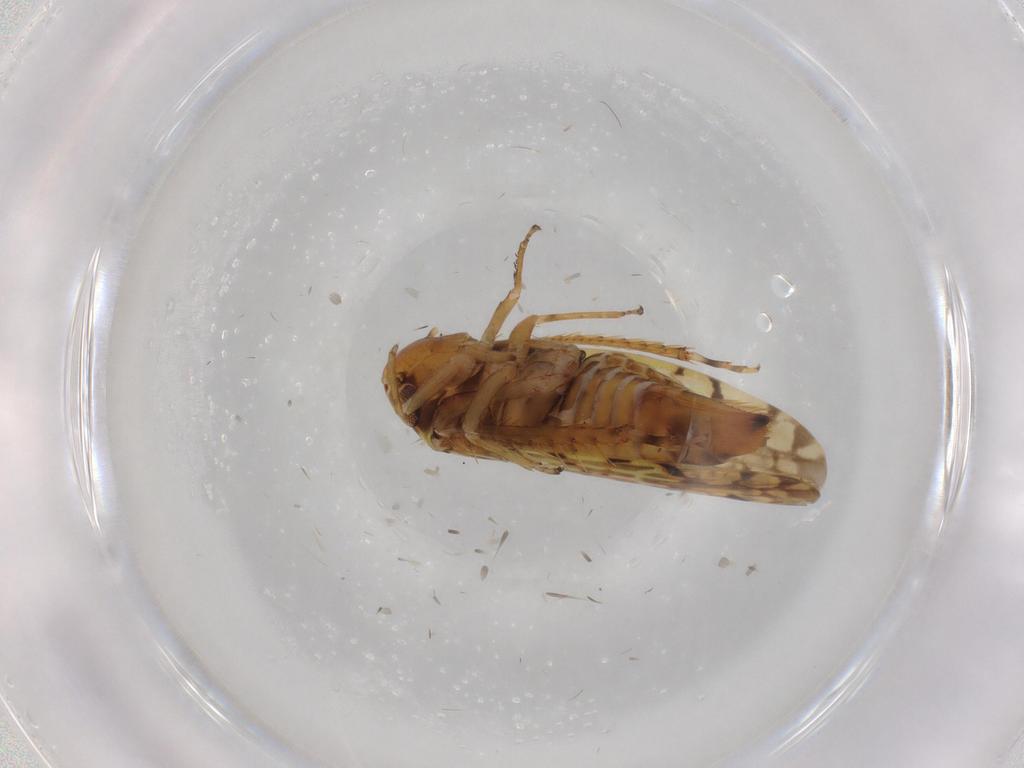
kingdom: Animalia
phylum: Arthropoda
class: Insecta
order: Hemiptera
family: Cicadellidae
